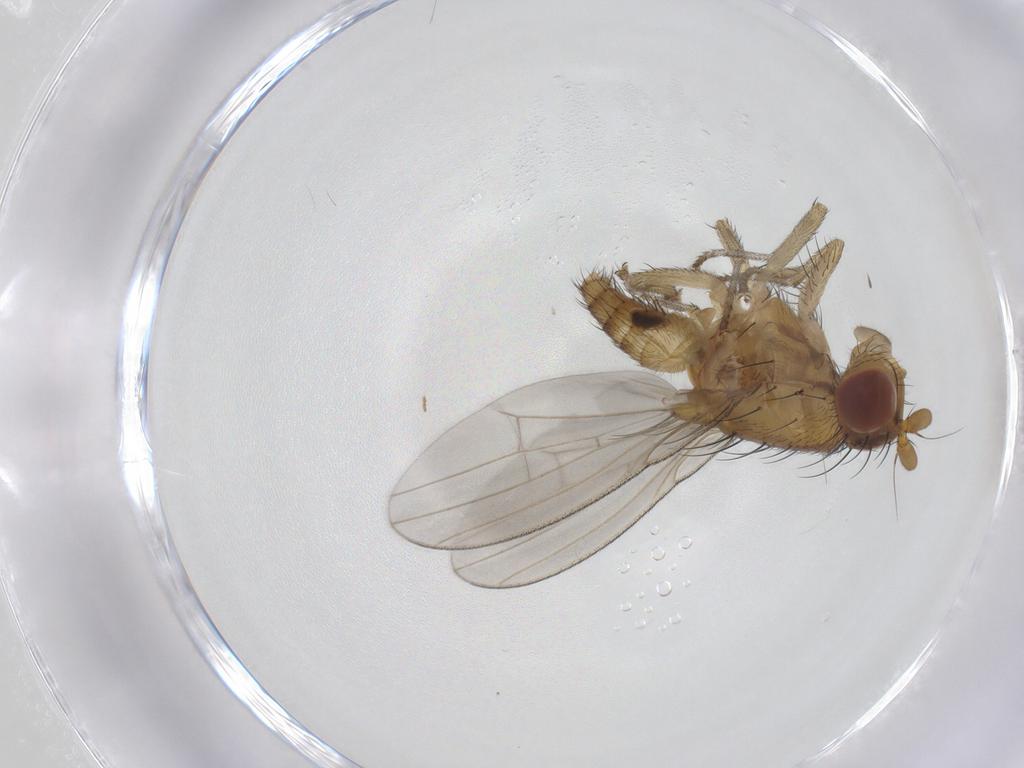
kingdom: Animalia
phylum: Arthropoda
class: Insecta
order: Diptera
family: Lauxaniidae
